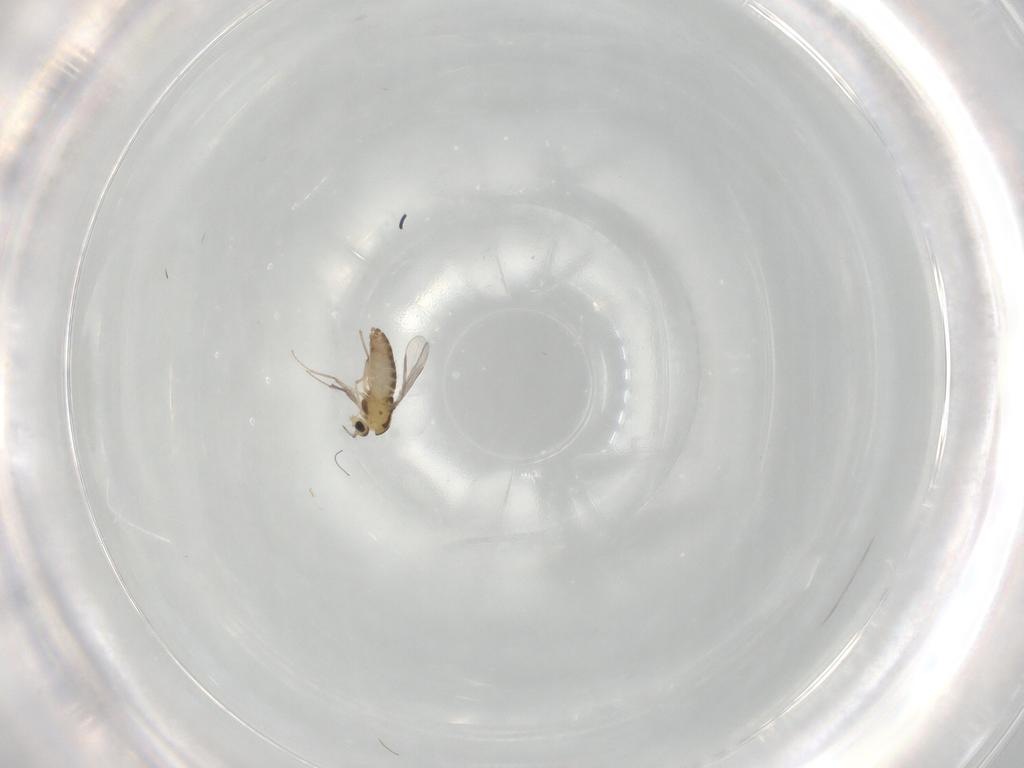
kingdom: Animalia
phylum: Arthropoda
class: Insecta
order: Diptera
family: Chironomidae
